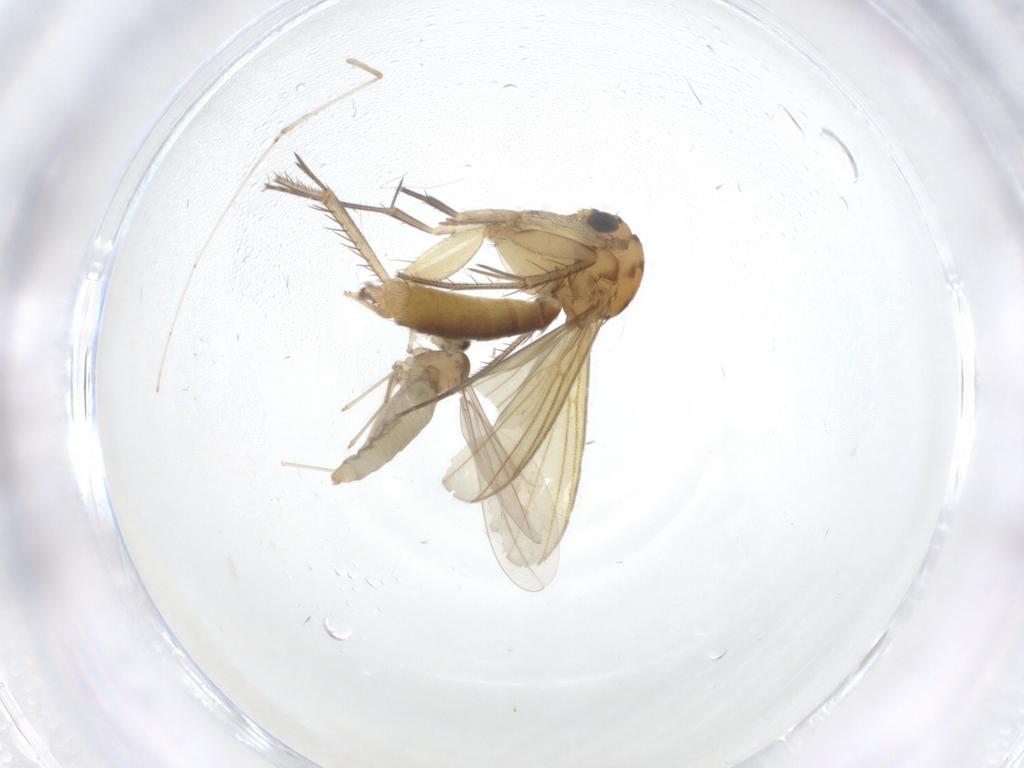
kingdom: Animalia
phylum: Arthropoda
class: Insecta
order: Diptera
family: Mycetophilidae
